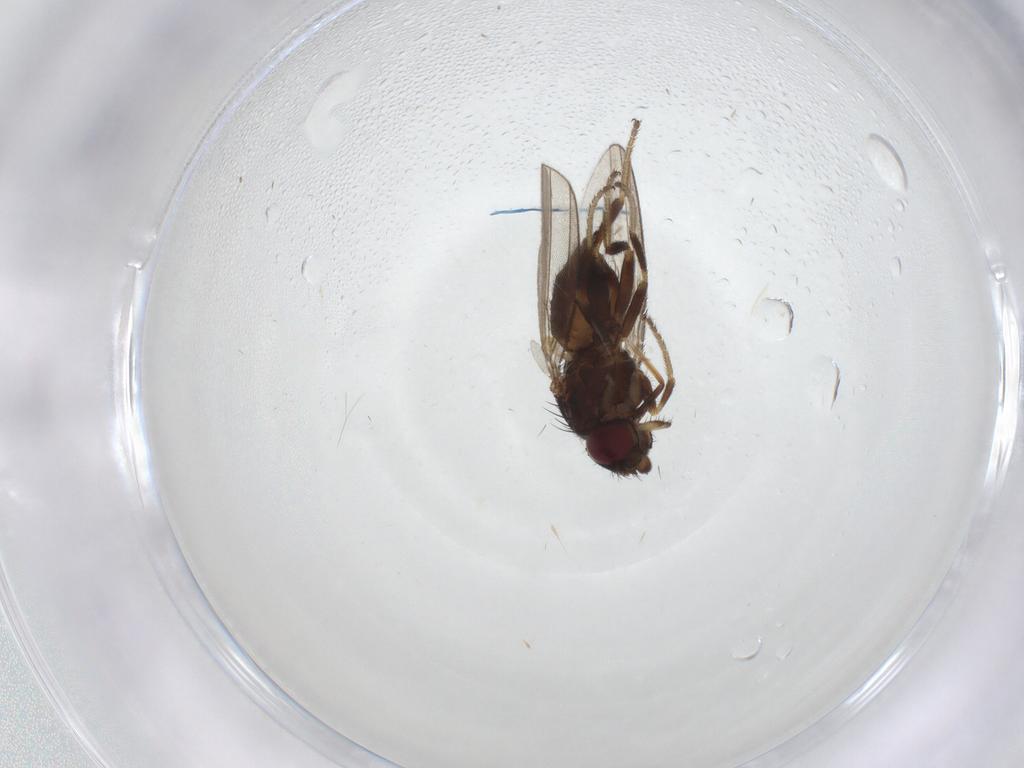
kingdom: Animalia
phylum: Arthropoda
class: Insecta
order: Diptera
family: Milichiidae
